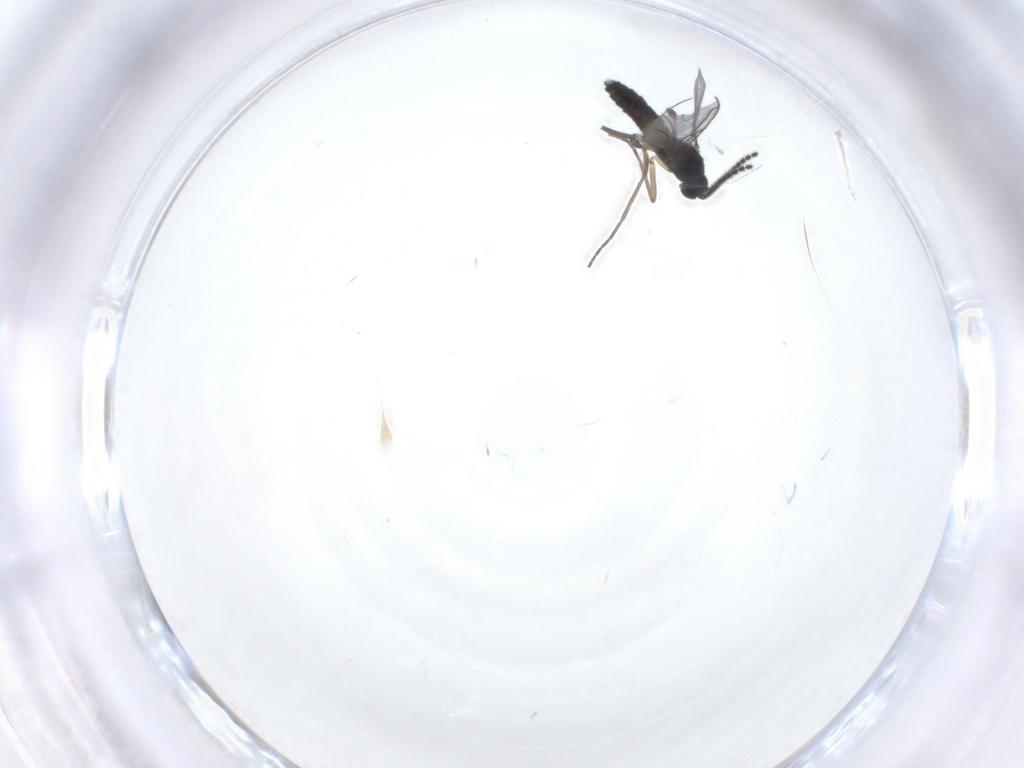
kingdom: Animalia
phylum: Arthropoda
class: Insecta
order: Diptera
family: Sciaridae
